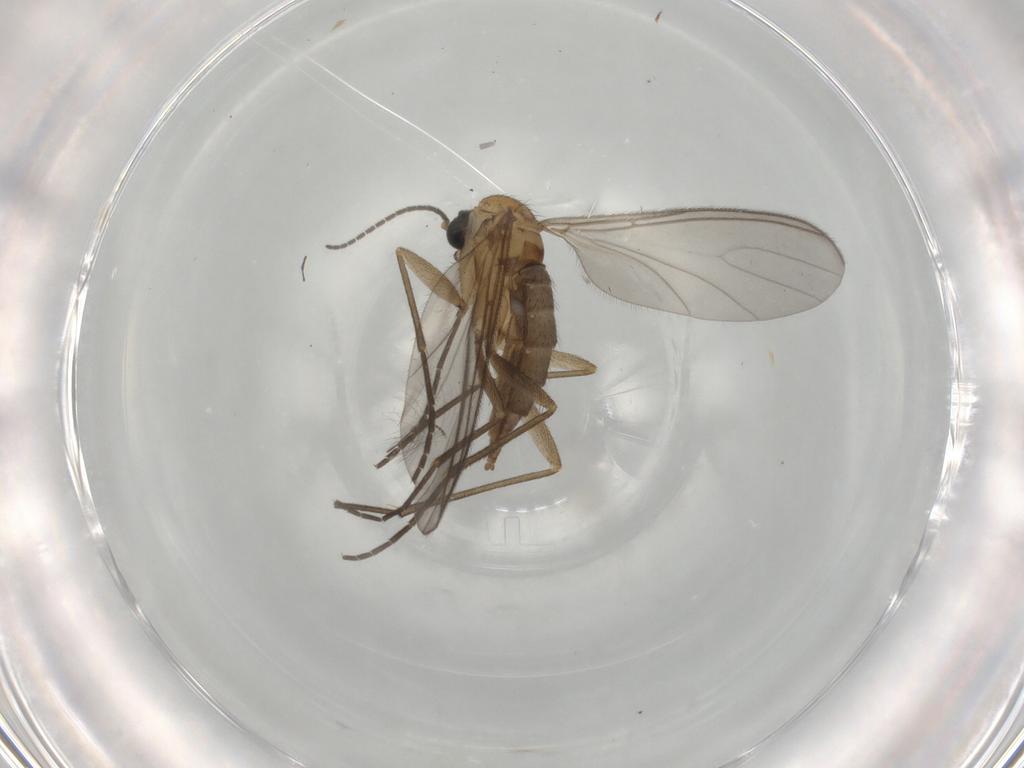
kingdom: Animalia
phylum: Arthropoda
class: Insecta
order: Diptera
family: Sciaridae
